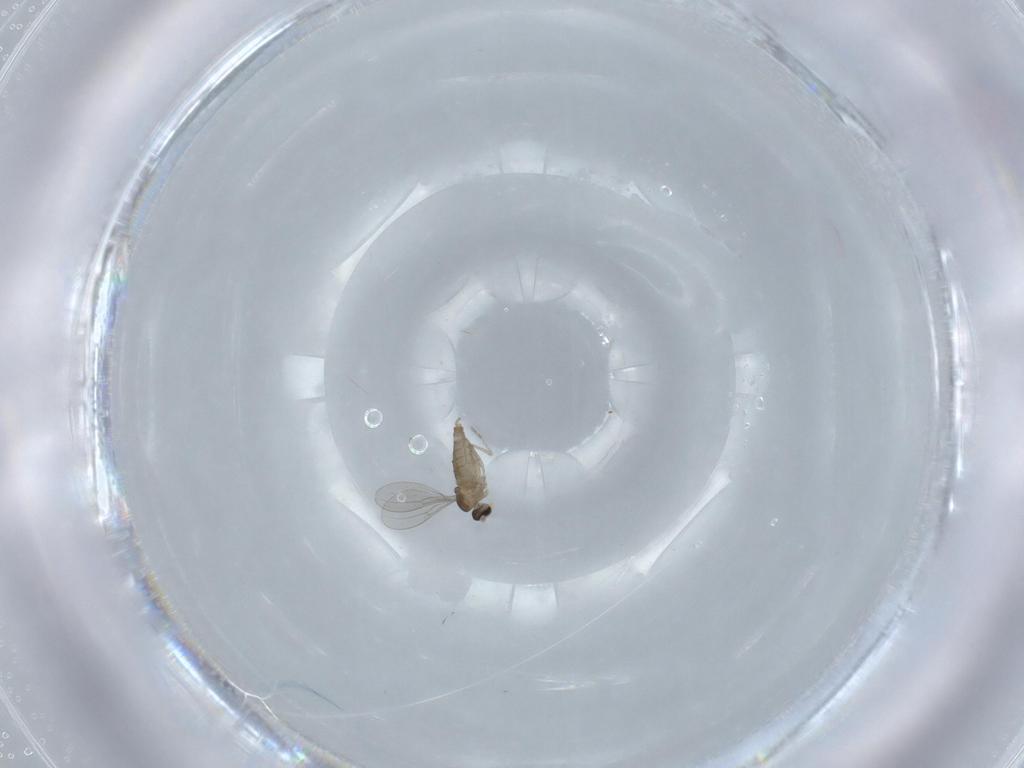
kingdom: Animalia
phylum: Arthropoda
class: Insecta
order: Diptera
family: Cecidomyiidae
